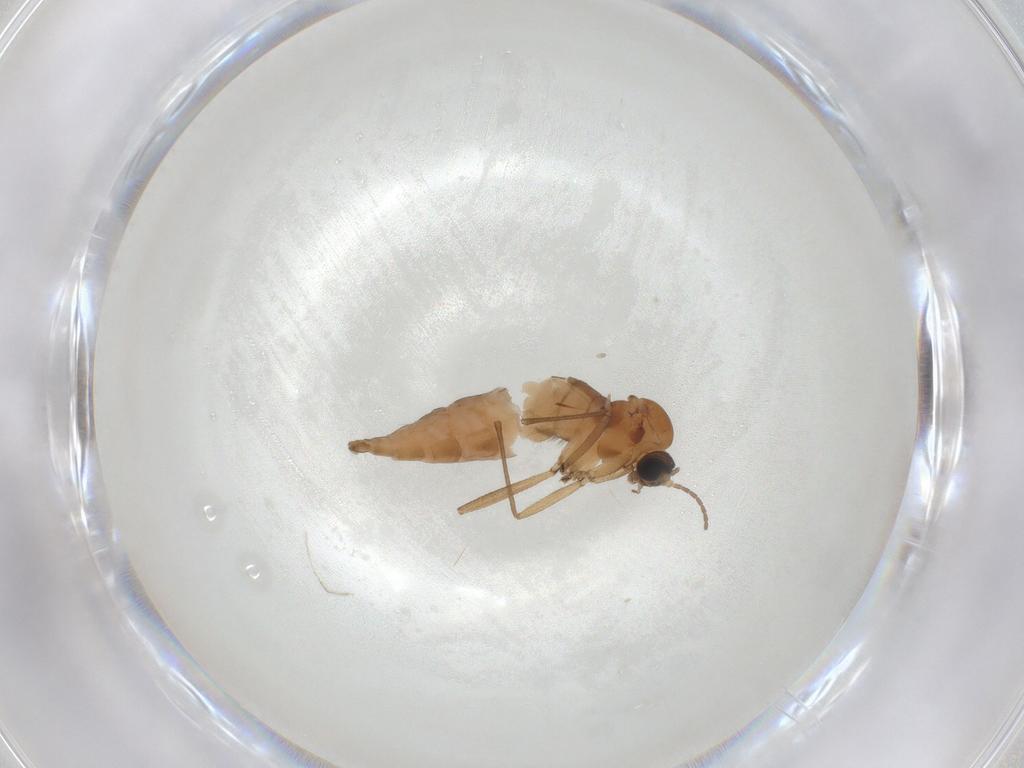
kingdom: Animalia
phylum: Arthropoda
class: Insecta
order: Diptera
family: Sciaridae
